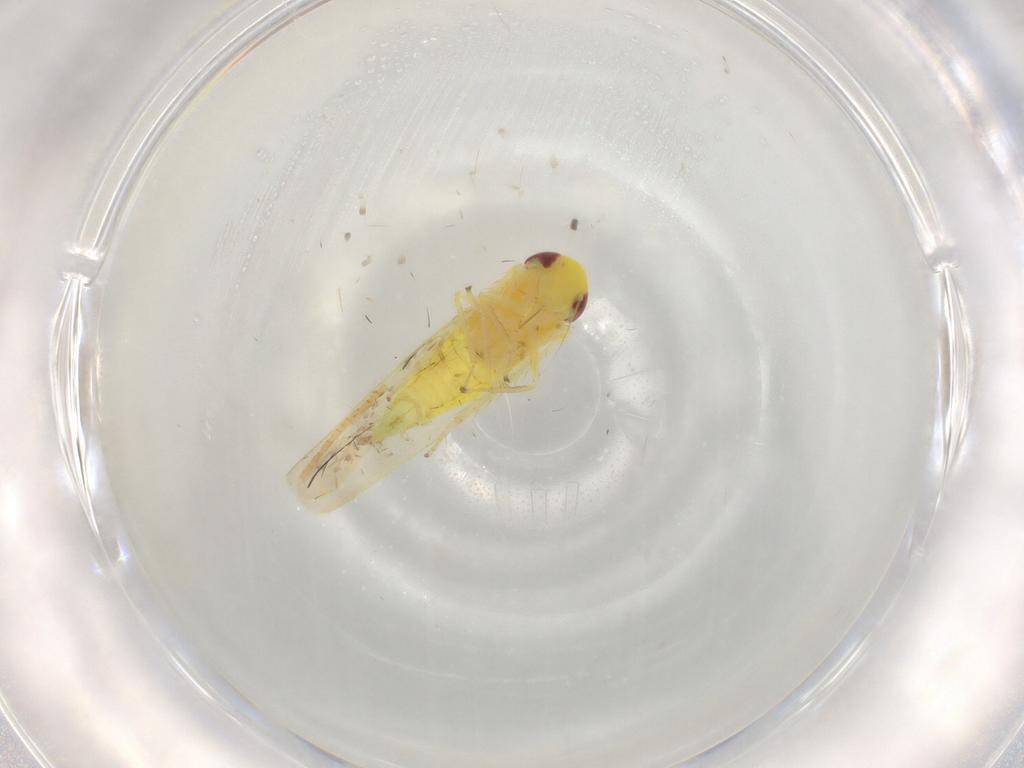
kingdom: Animalia
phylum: Arthropoda
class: Insecta
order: Hemiptera
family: Cicadellidae
